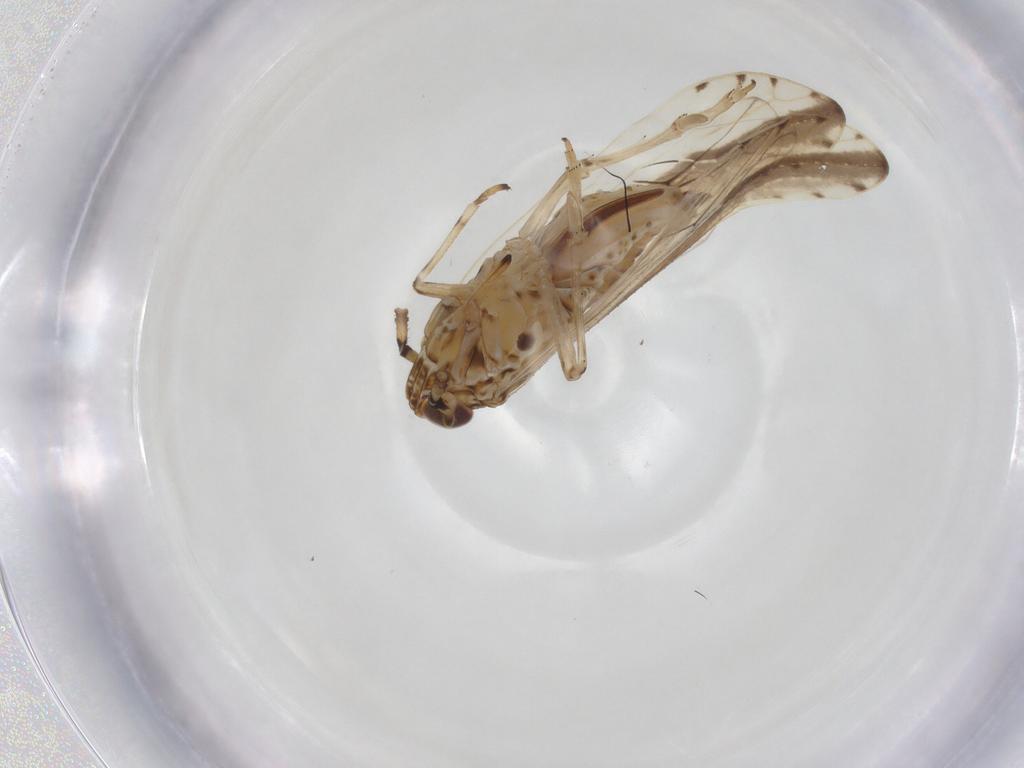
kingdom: Animalia
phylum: Arthropoda
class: Insecta
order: Hemiptera
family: Delphacidae
